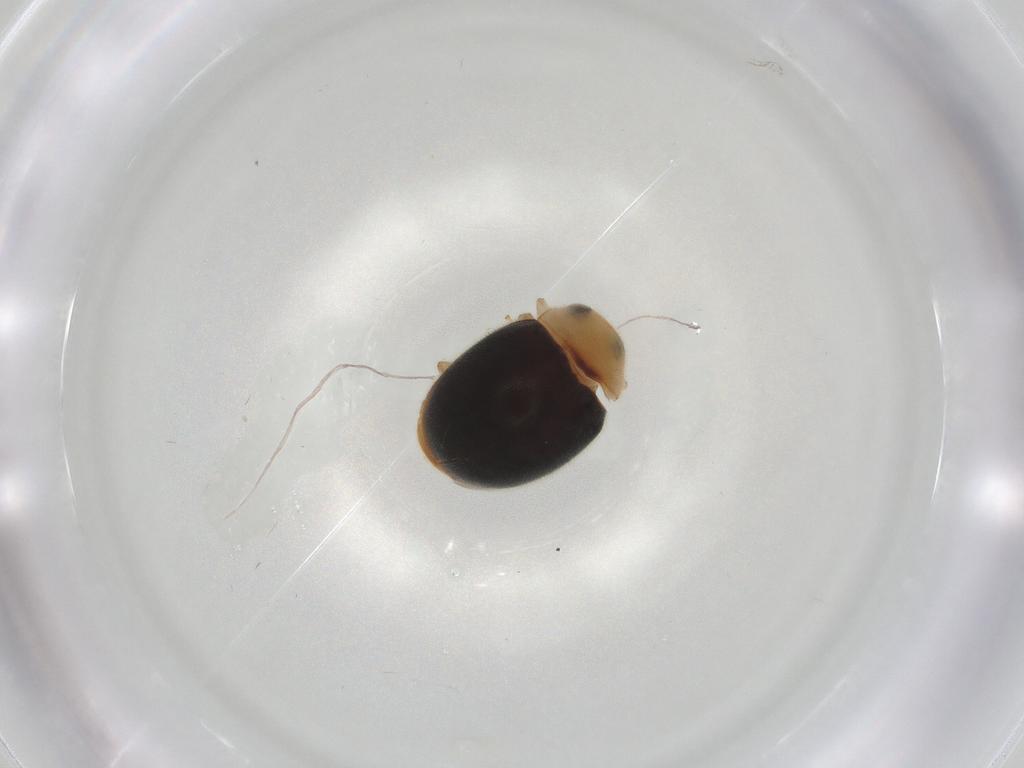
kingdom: Animalia
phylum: Arthropoda
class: Insecta
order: Coleoptera
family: Coccinellidae
